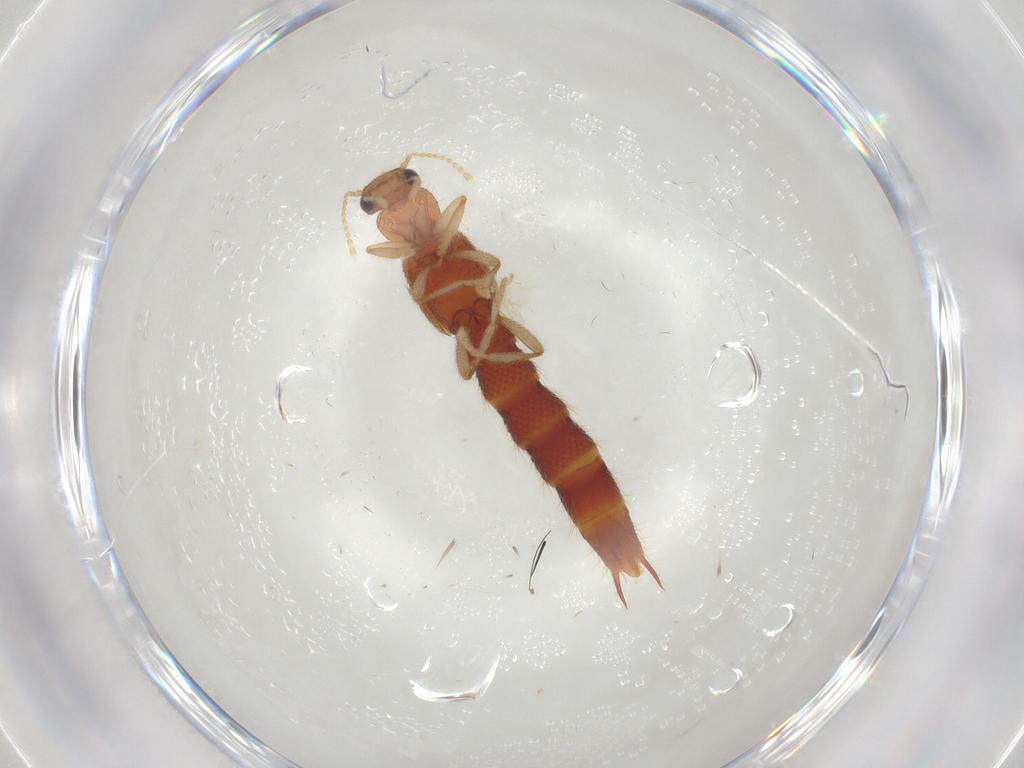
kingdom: Animalia
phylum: Arthropoda
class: Insecta
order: Coleoptera
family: Staphylinidae
